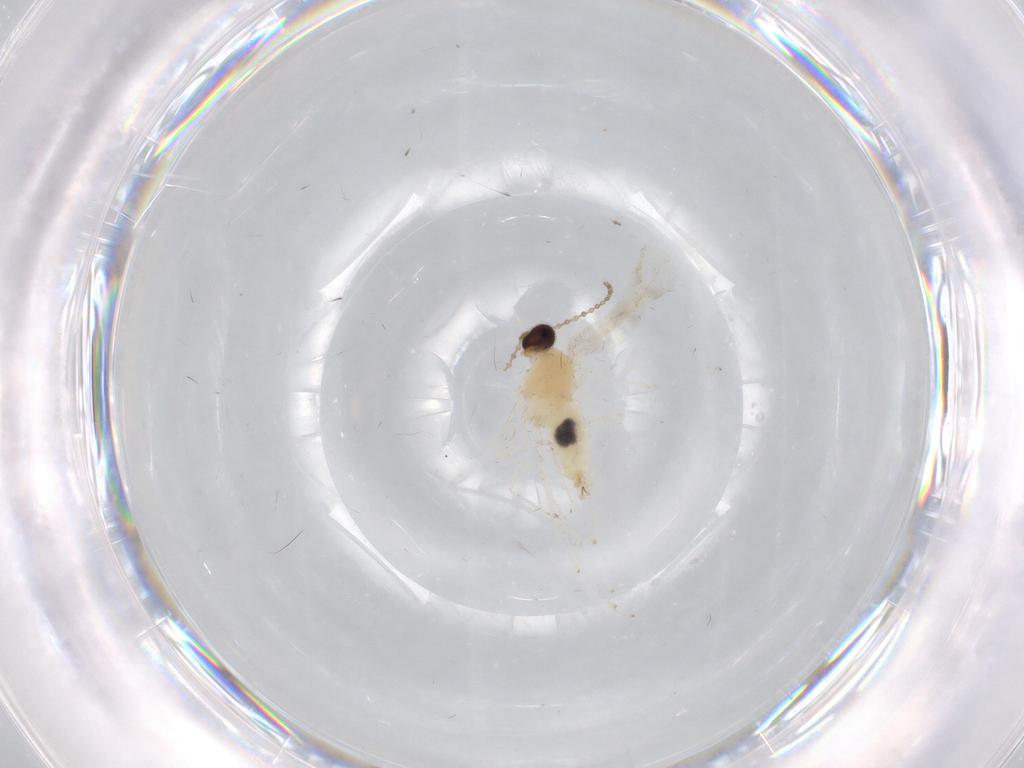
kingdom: Animalia
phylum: Arthropoda
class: Insecta
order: Diptera
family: Cecidomyiidae
